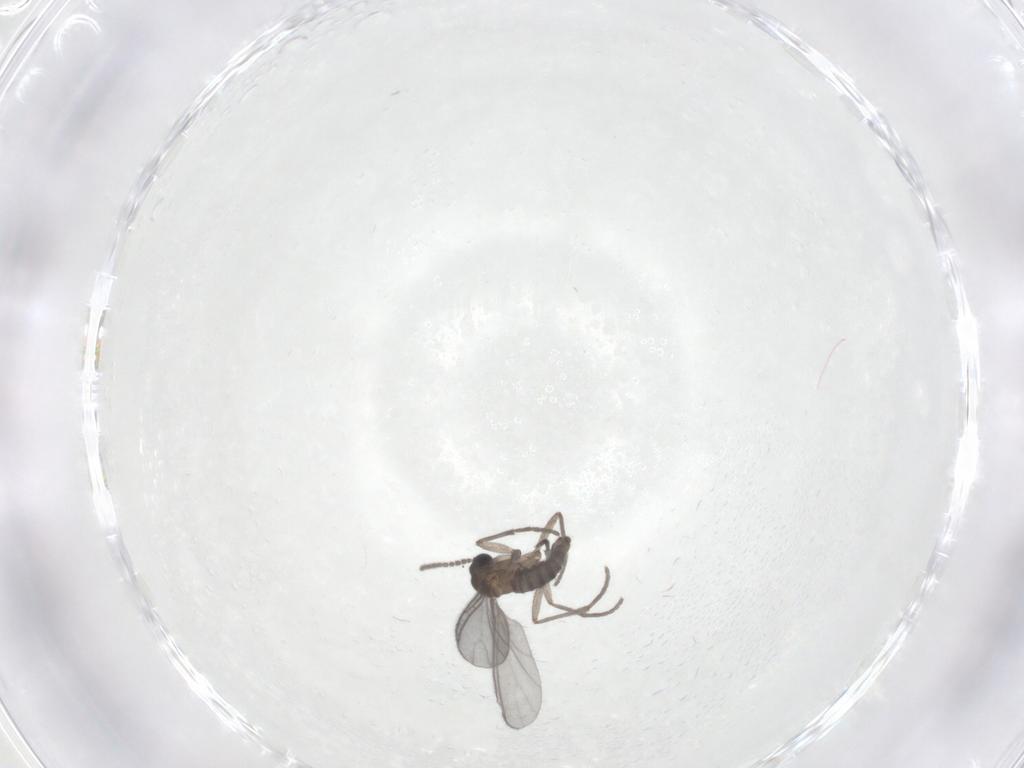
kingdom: Animalia
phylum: Arthropoda
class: Insecta
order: Diptera
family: Sciaridae
